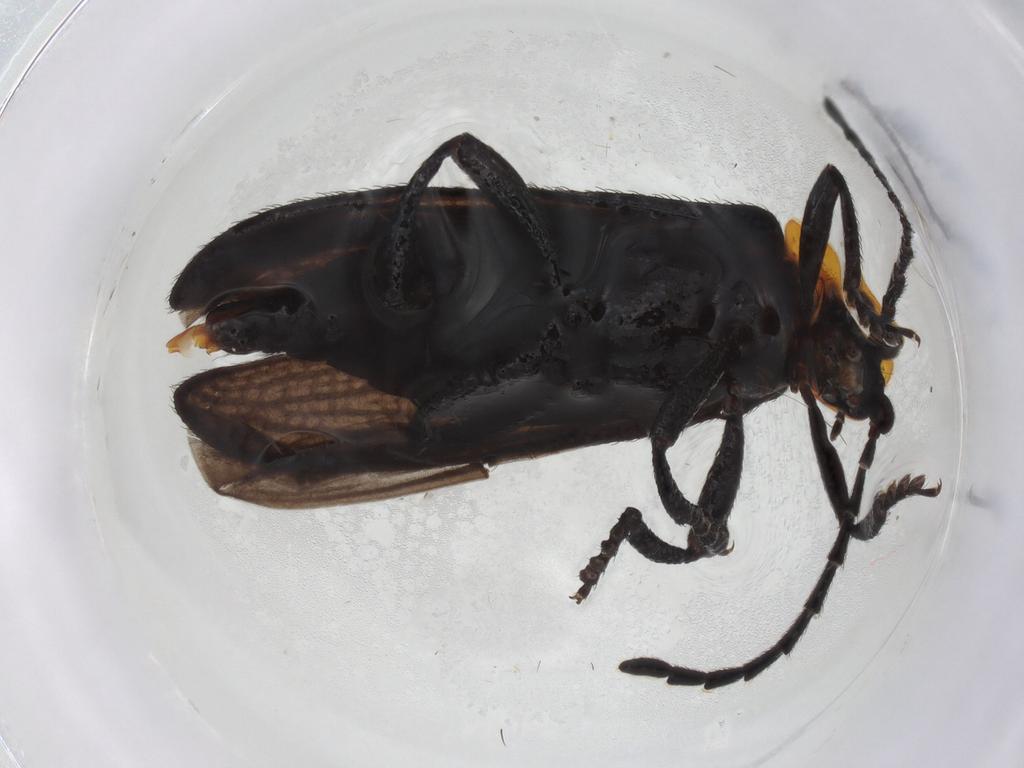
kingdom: Animalia
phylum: Arthropoda
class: Insecta
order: Coleoptera
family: Lycidae
